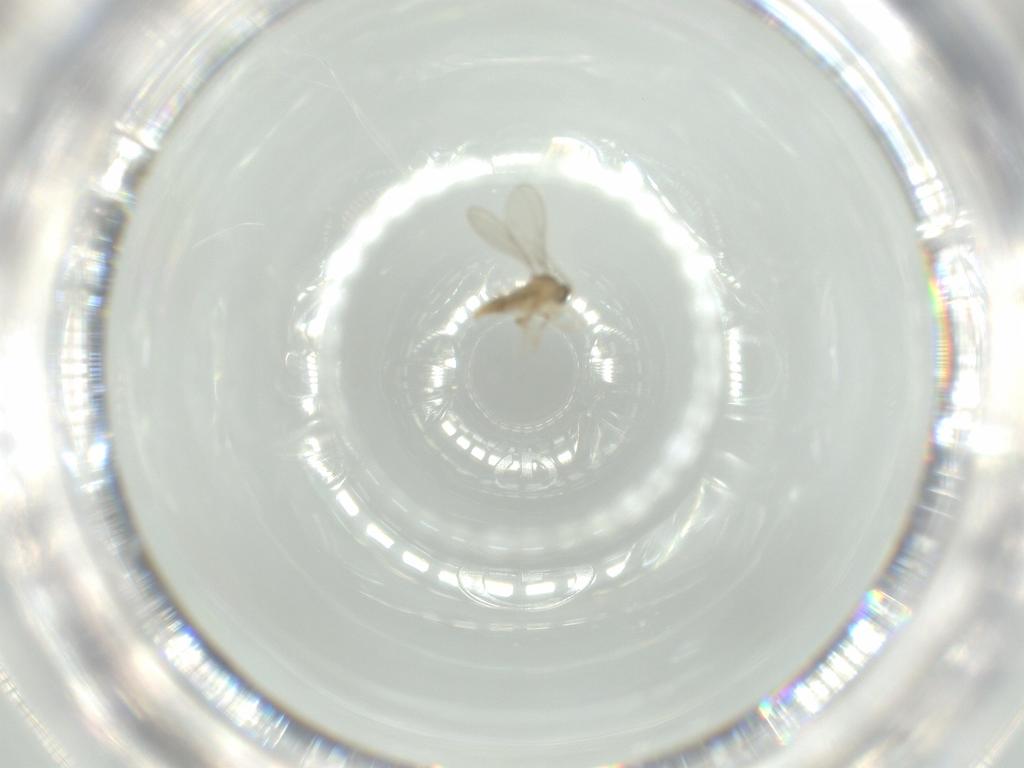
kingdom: Animalia
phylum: Arthropoda
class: Insecta
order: Diptera
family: Cecidomyiidae
